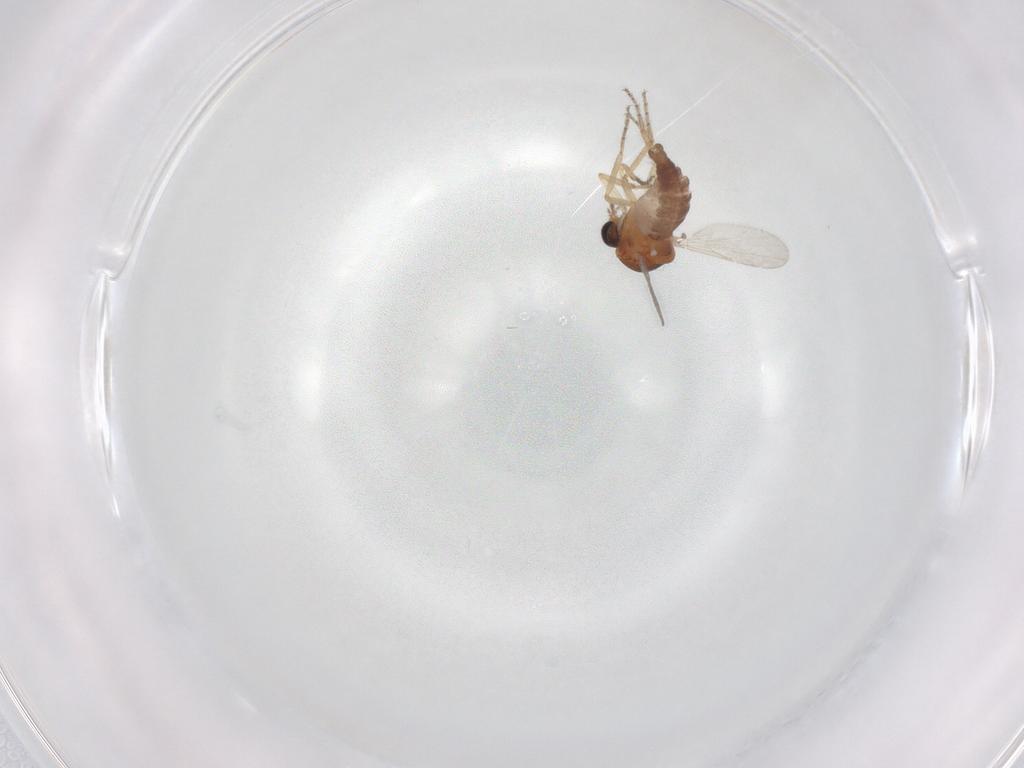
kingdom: Animalia
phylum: Arthropoda
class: Insecta
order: Diptera
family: Ceratopogonidae
